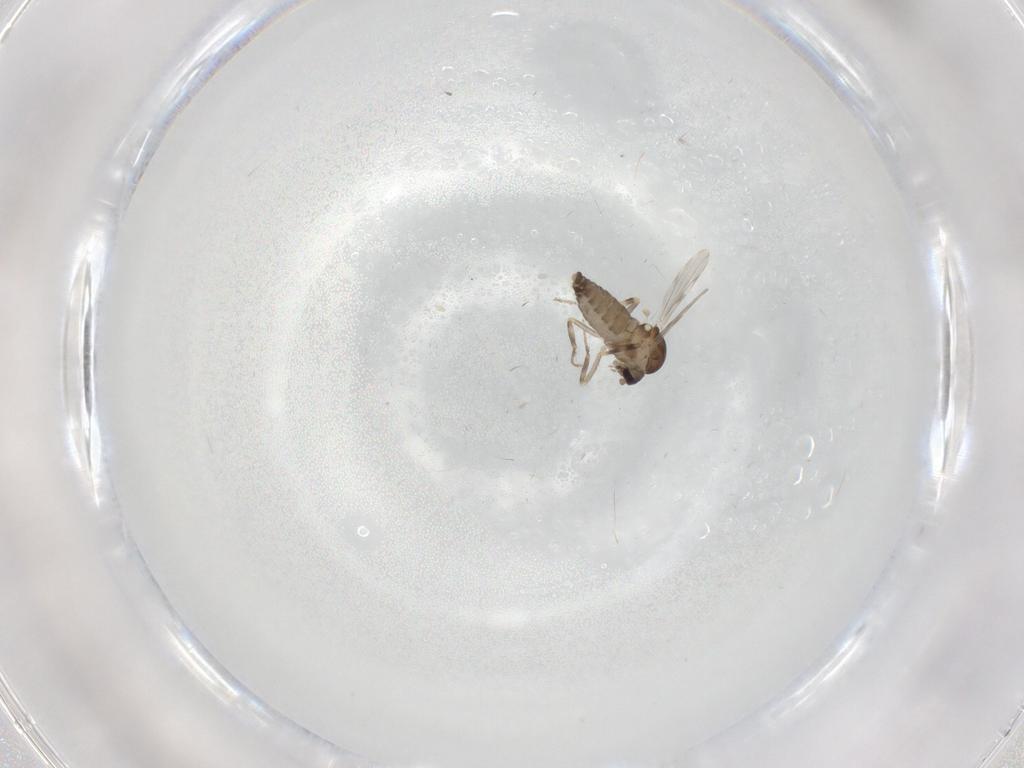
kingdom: Animalia
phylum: Arthropoda
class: Insecta
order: Diptera
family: Ceratopogonidae
